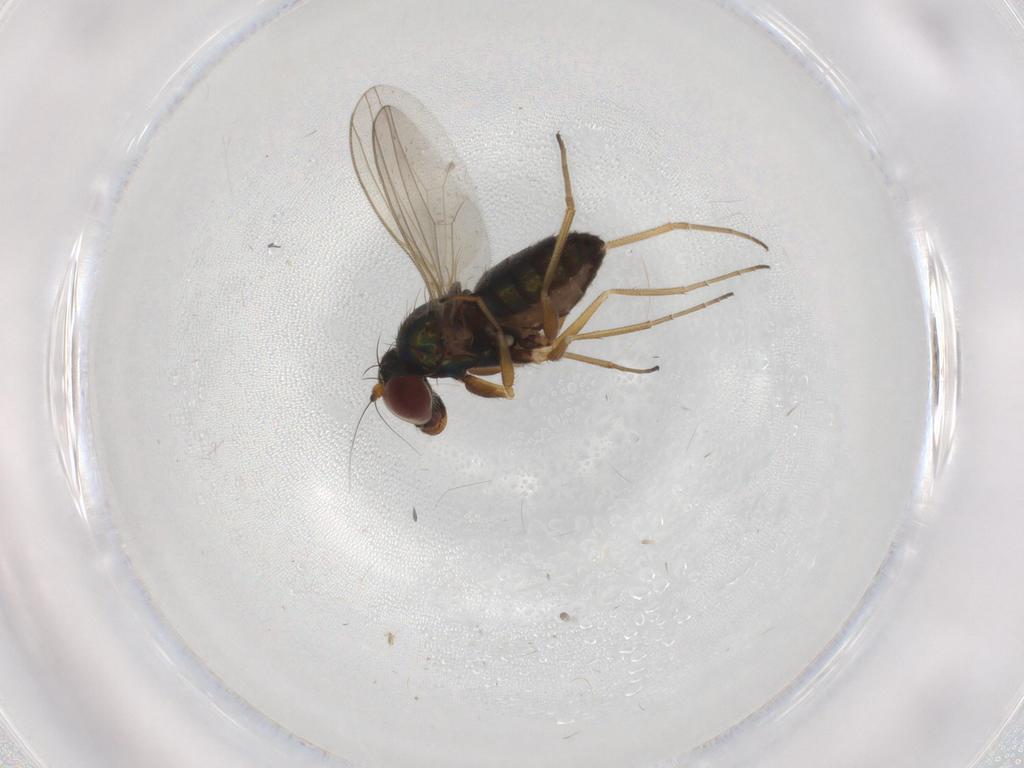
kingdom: Animalia
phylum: Arthropoda
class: Insecta
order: Diptera
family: Dolichopodidae
